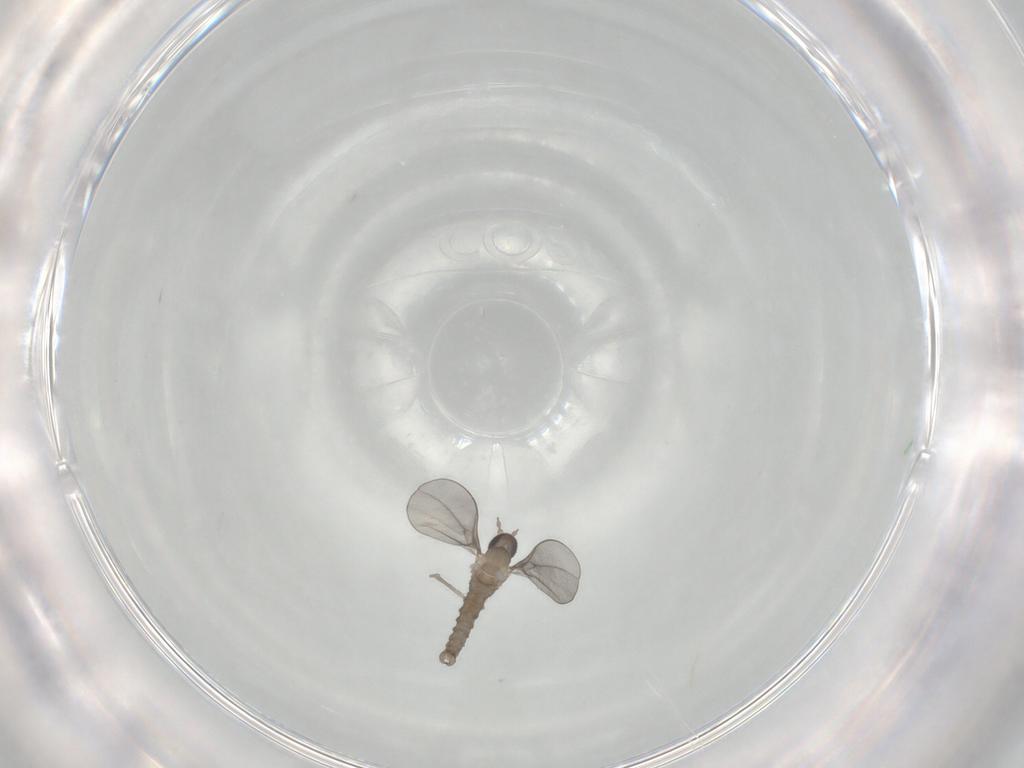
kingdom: Animalia
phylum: Arthropoda
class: Insecta
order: Diptera
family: Cecidomyiidae
